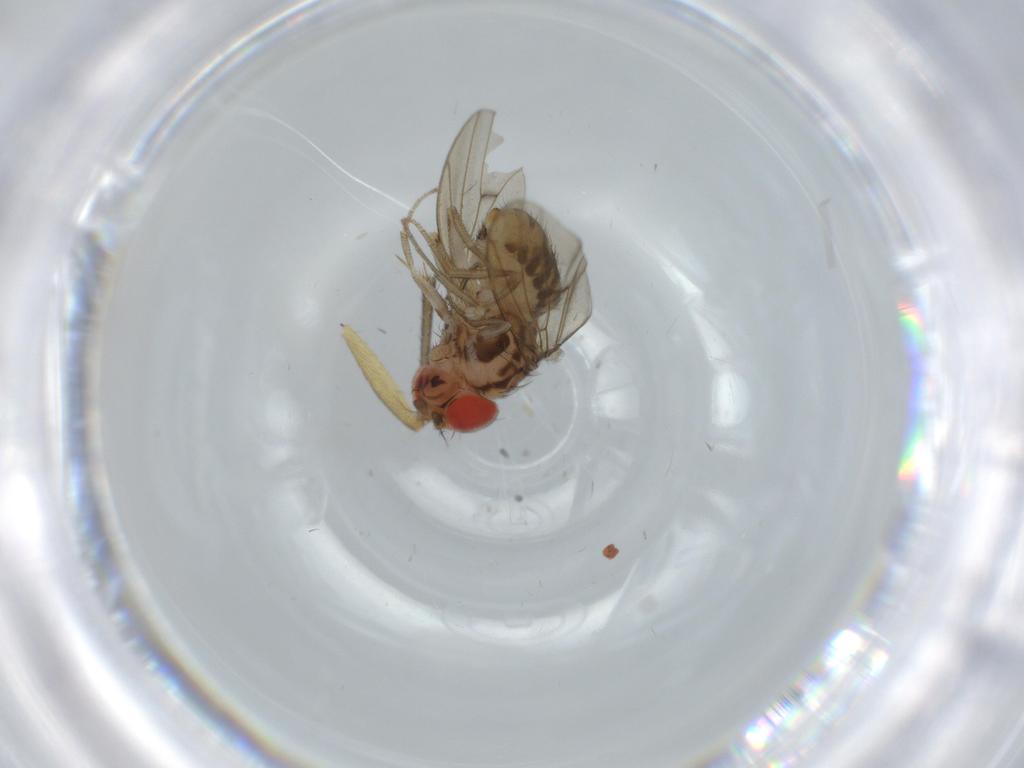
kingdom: Animalia
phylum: Arthropoda
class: Insecta
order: Diptera
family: Drosophilidae
